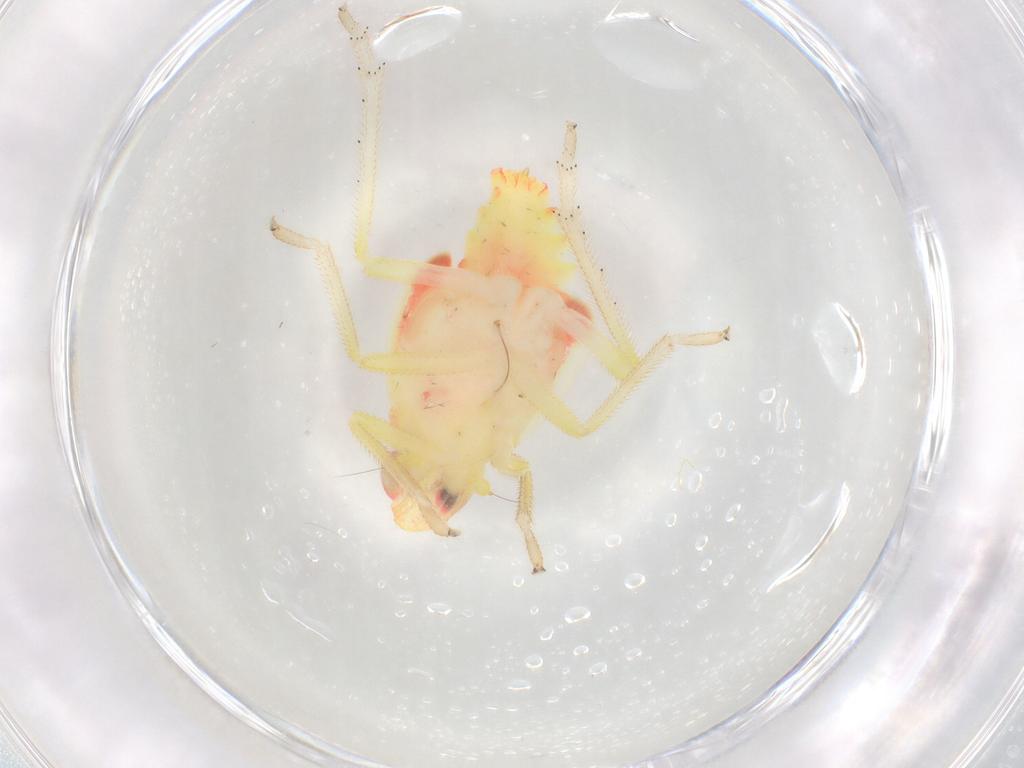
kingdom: Animalia
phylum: Arthropoda
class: Insecta
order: Hemiptera
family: Tropiduchidae
